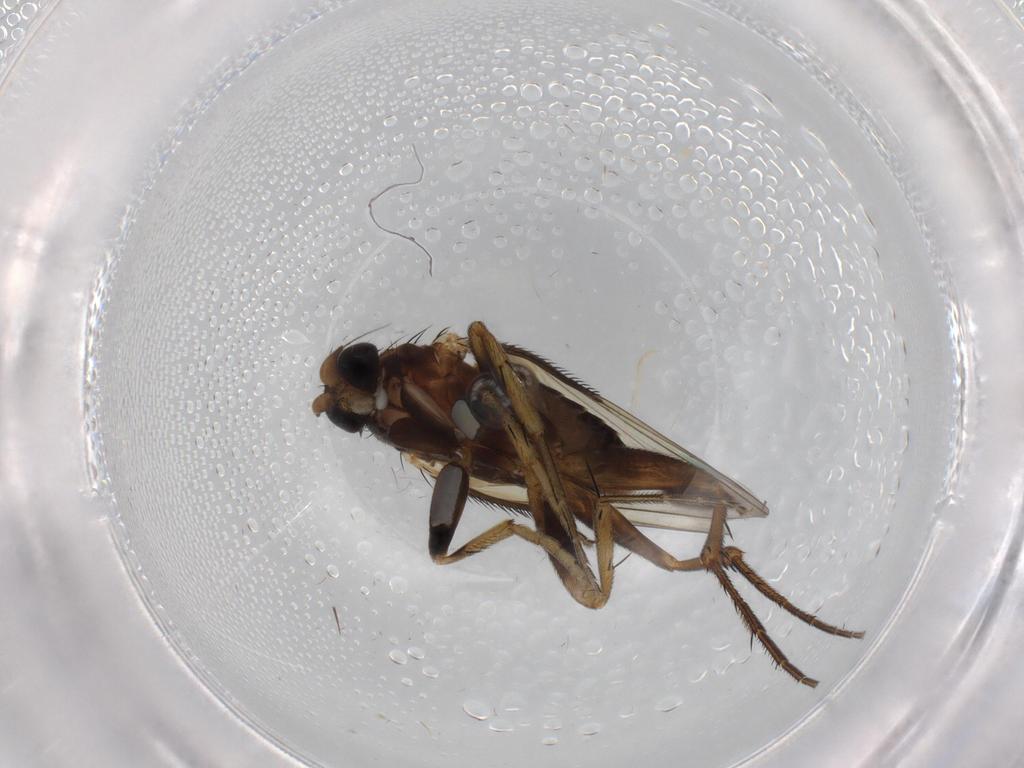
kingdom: Animalia
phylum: Arthropoda
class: Insecta
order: Diptera
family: Phoridae
